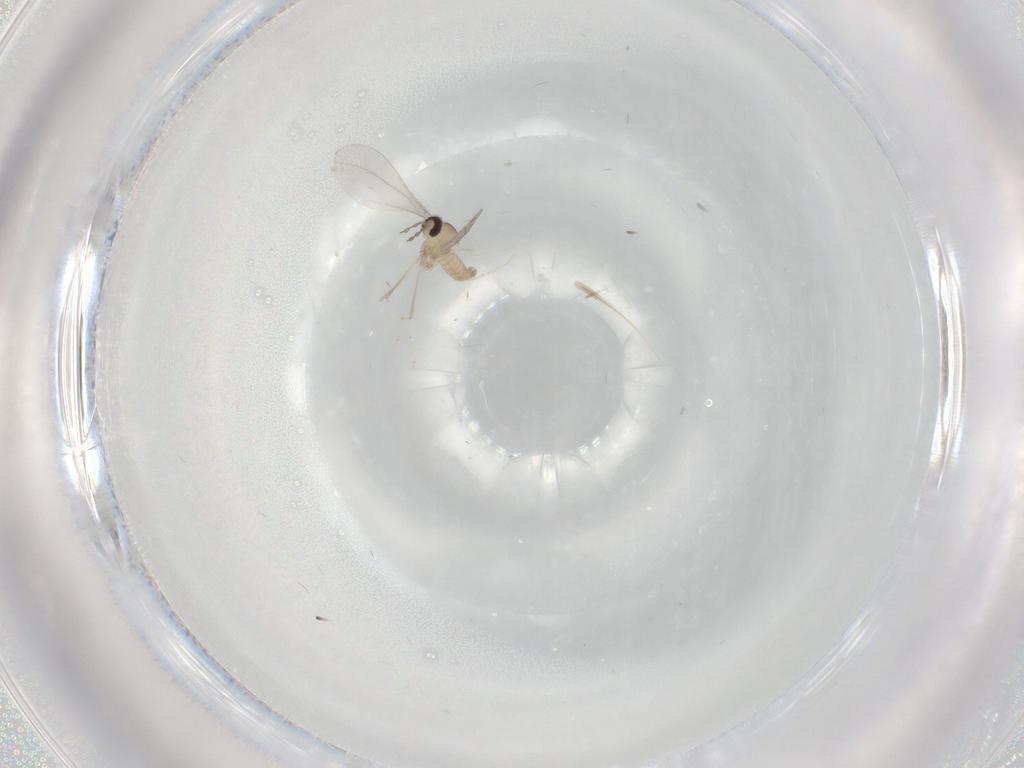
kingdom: Animalia
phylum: Arthropoda
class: Insecta
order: Diptera
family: Cecidomyiidae
